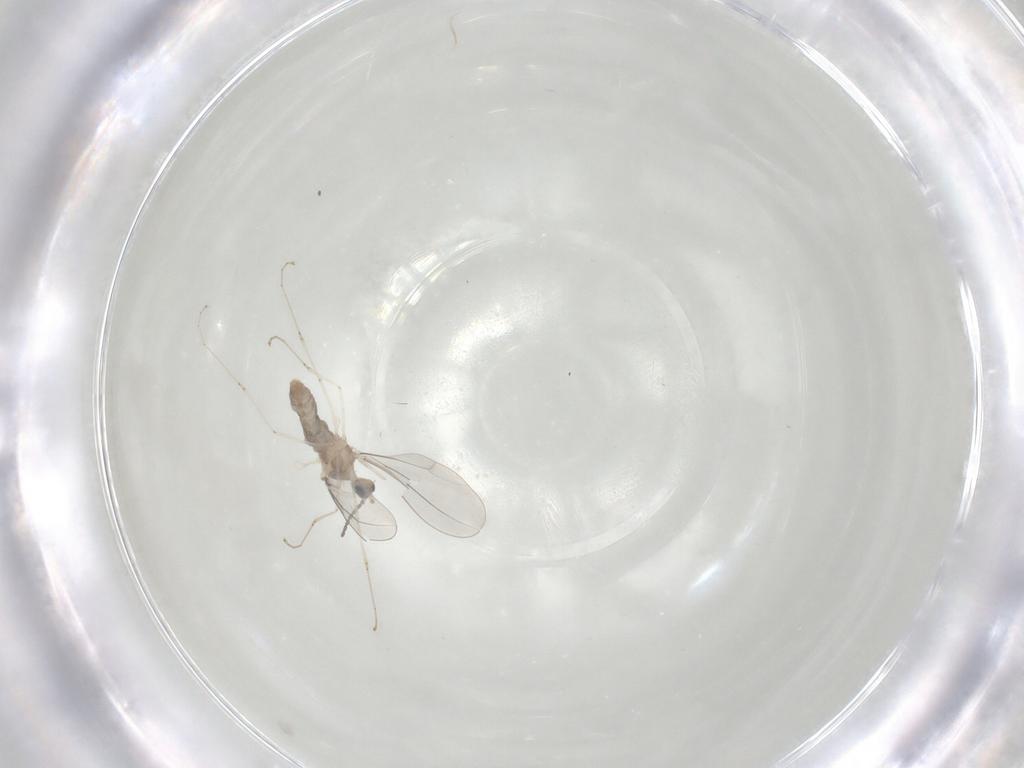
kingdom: Animalia
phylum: Arthropoda
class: Insecta
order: Diptera
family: Cecidomyiidae
